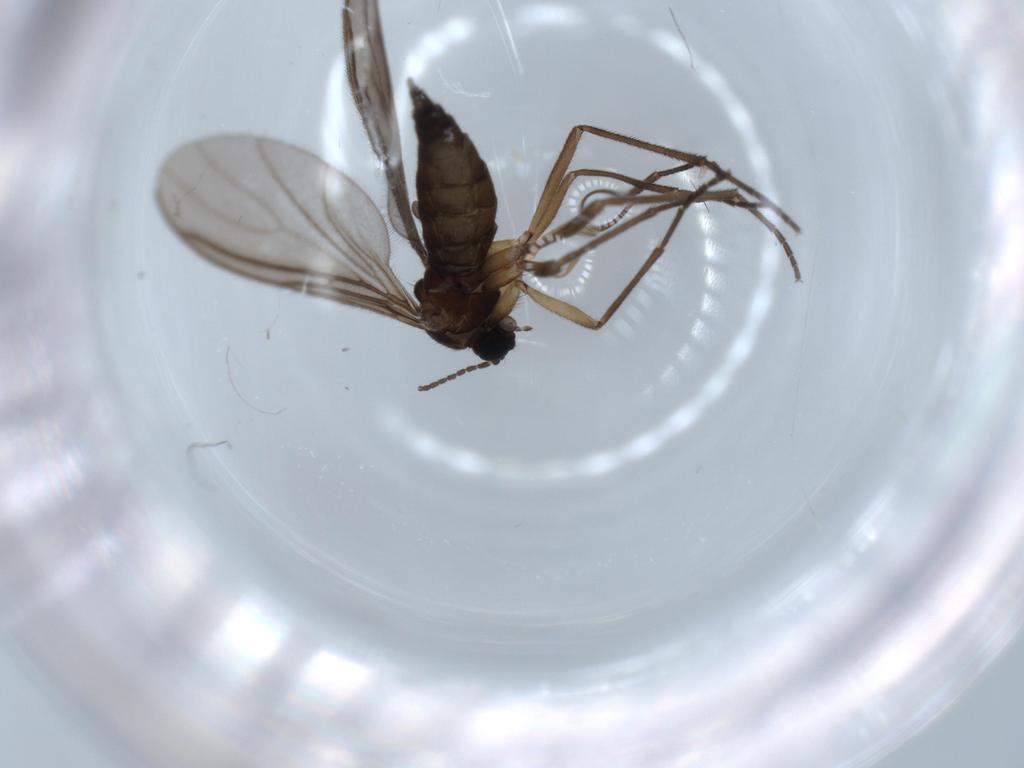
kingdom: Animalia
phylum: Arthropoda
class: Insecta
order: Diptera
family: Sciaridae
